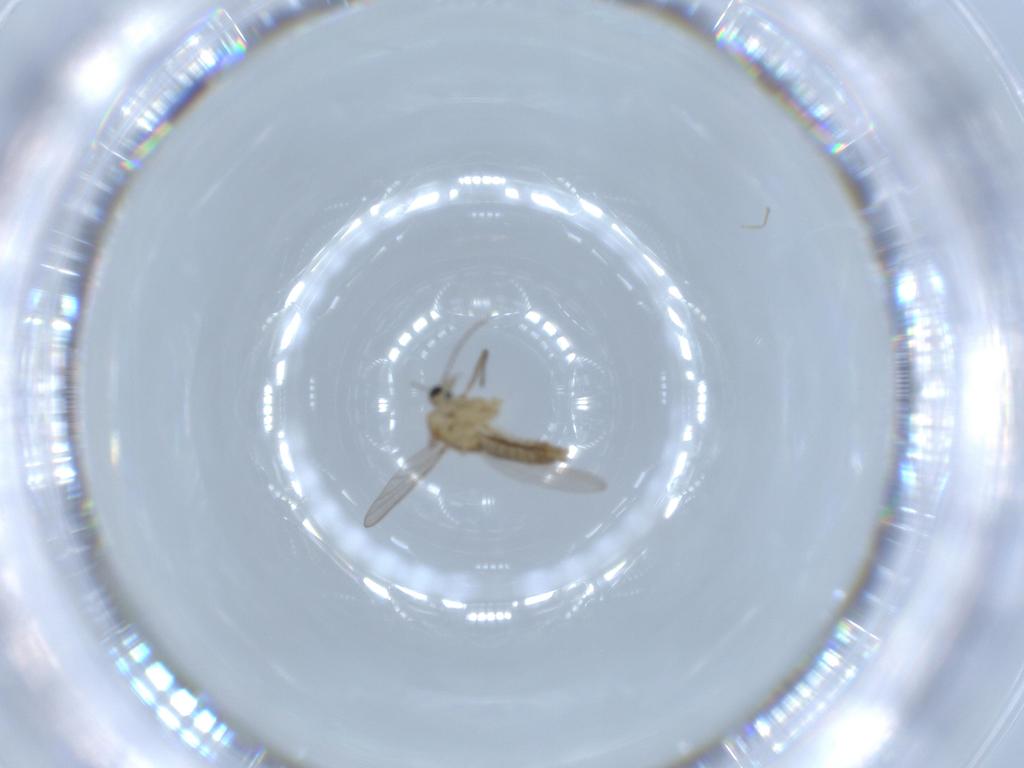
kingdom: Animalia
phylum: Arthropoda
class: Insecta
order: Diptera
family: Chironomidae
